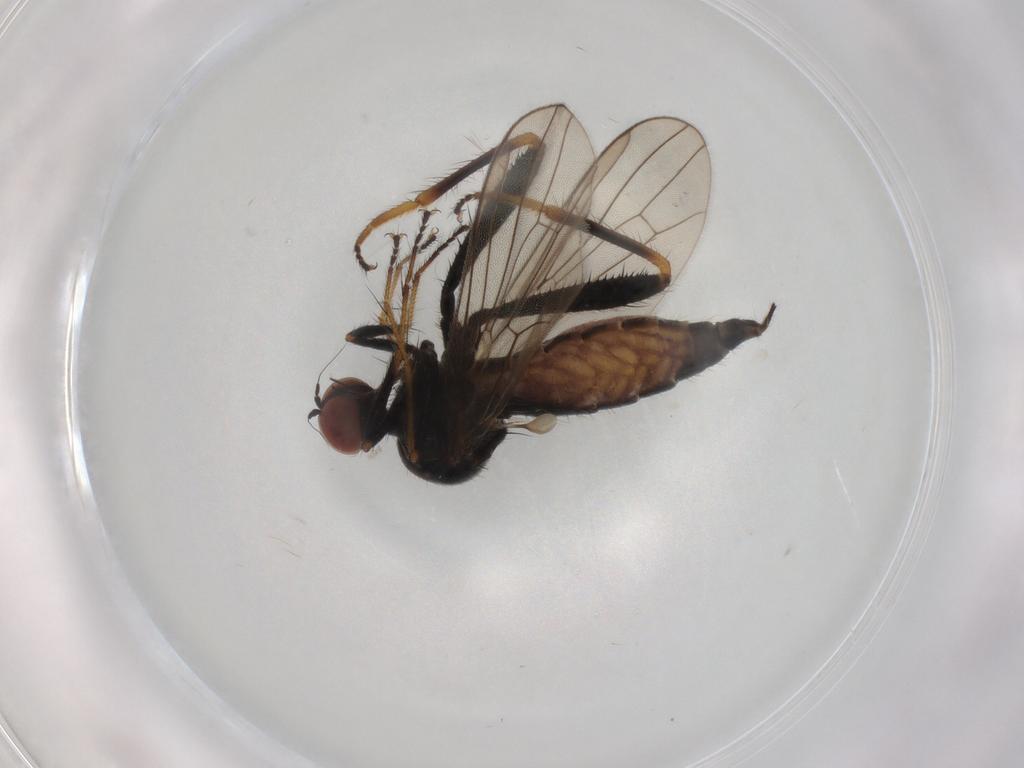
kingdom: Animalia
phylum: Arthropoda
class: Insecta
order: Diptera
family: Hybotidae
